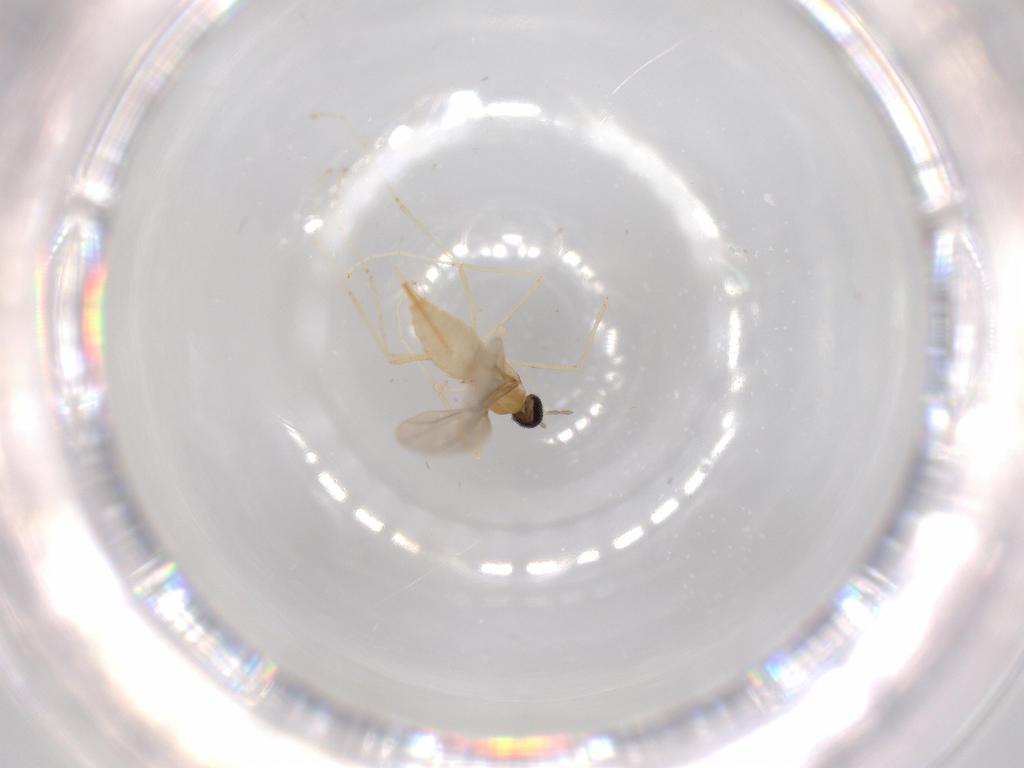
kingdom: Animalia
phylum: Arthropoda
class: Insecta
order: Diptera
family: Cecidomyiidae
